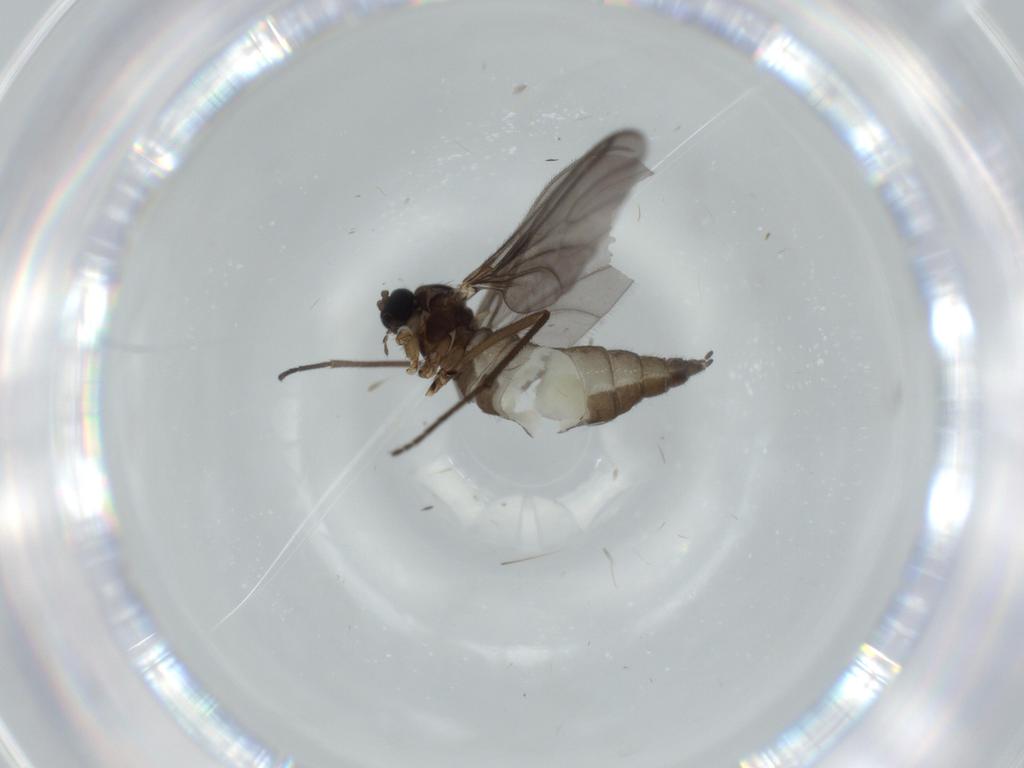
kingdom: Animalia
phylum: Arthropoda
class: Insecta
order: Diptera
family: Sciaridae
